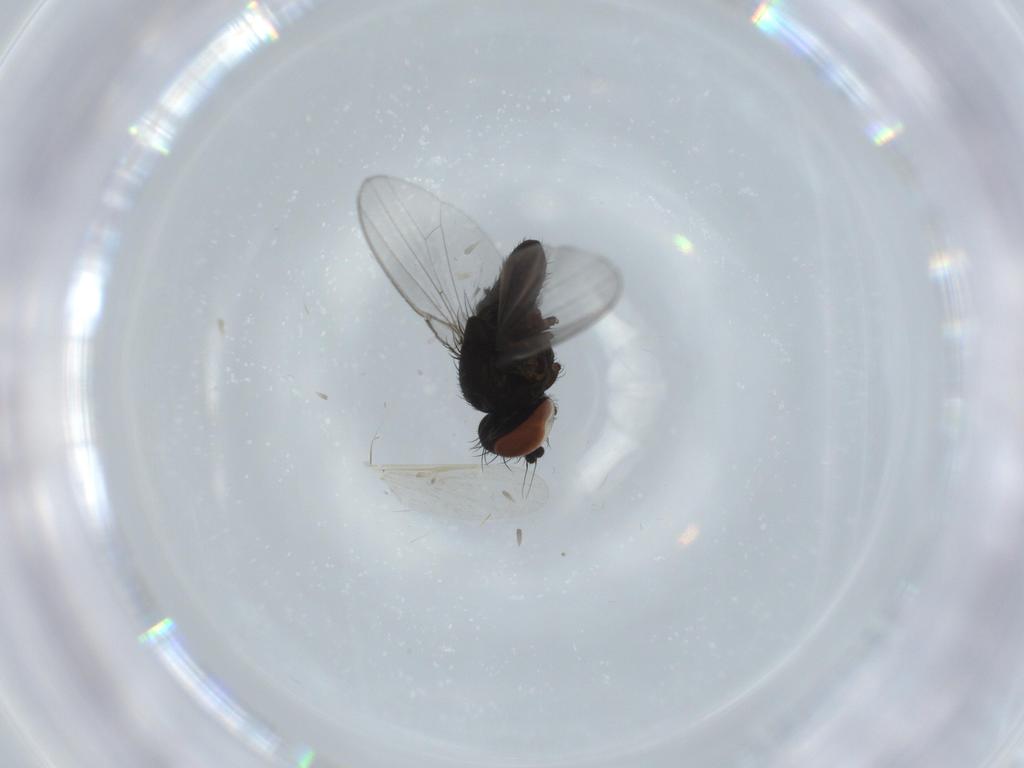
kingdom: Animalia
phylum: Arthropoda
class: Insecta
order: Diptera
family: Milichiidae
